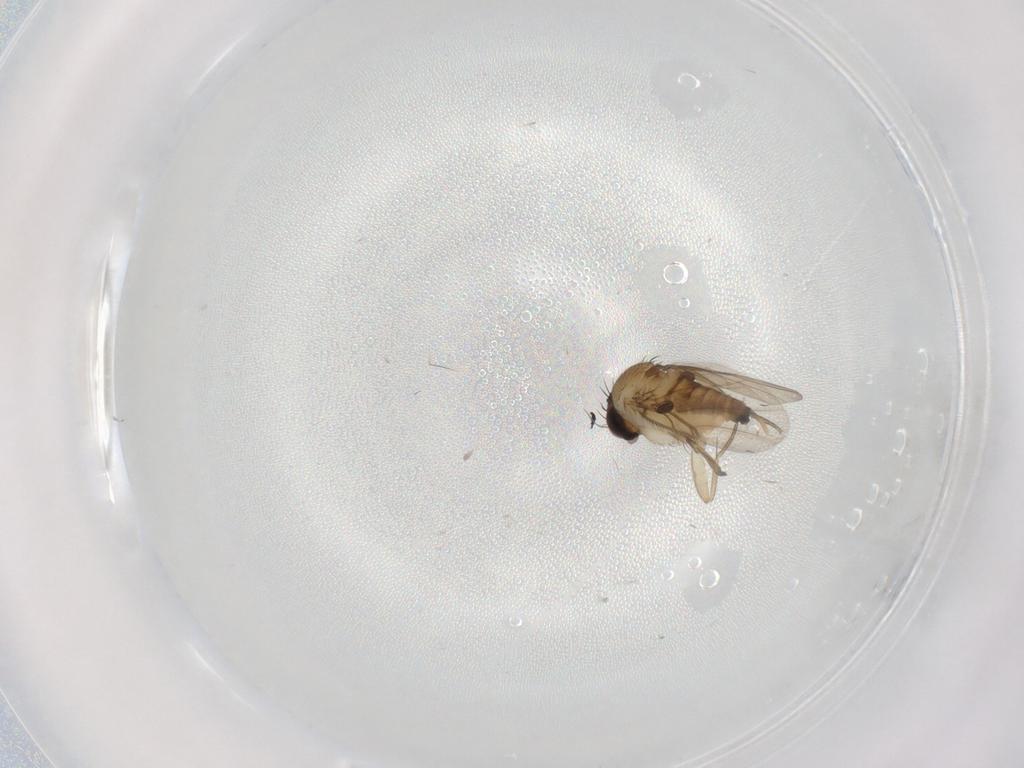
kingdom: Animalia
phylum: Arthropoda
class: Insecta
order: Diptera
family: Phoridae
